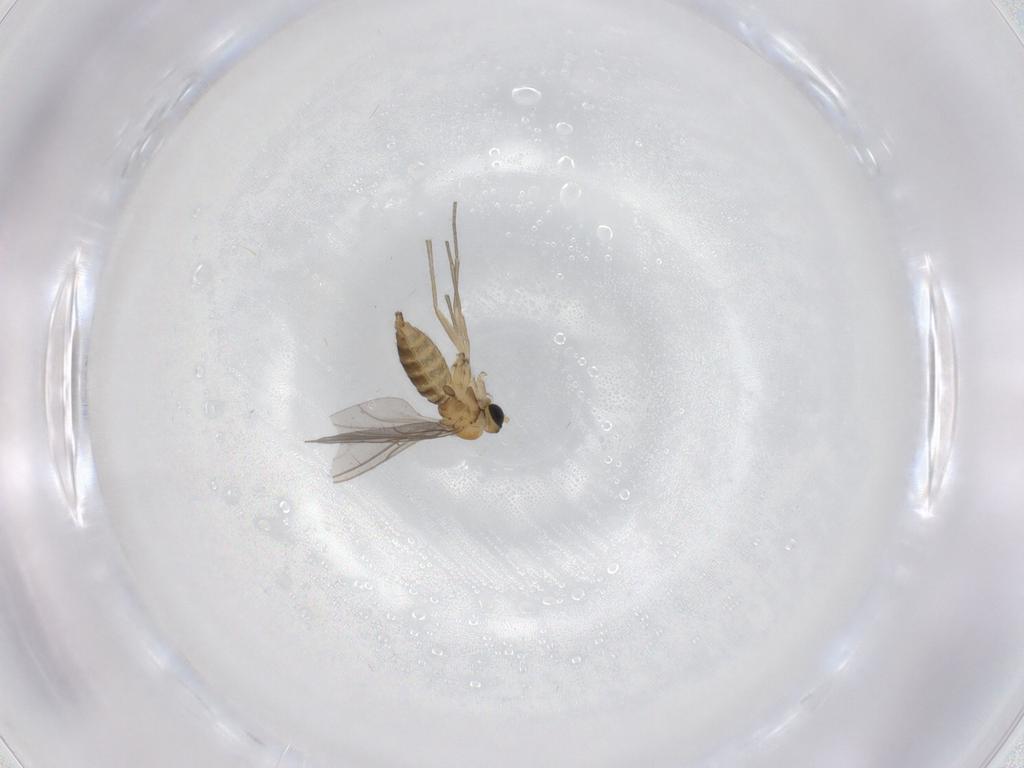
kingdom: Animalia
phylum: Arthropoda
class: Insecta
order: Diptera
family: Sciaridae
